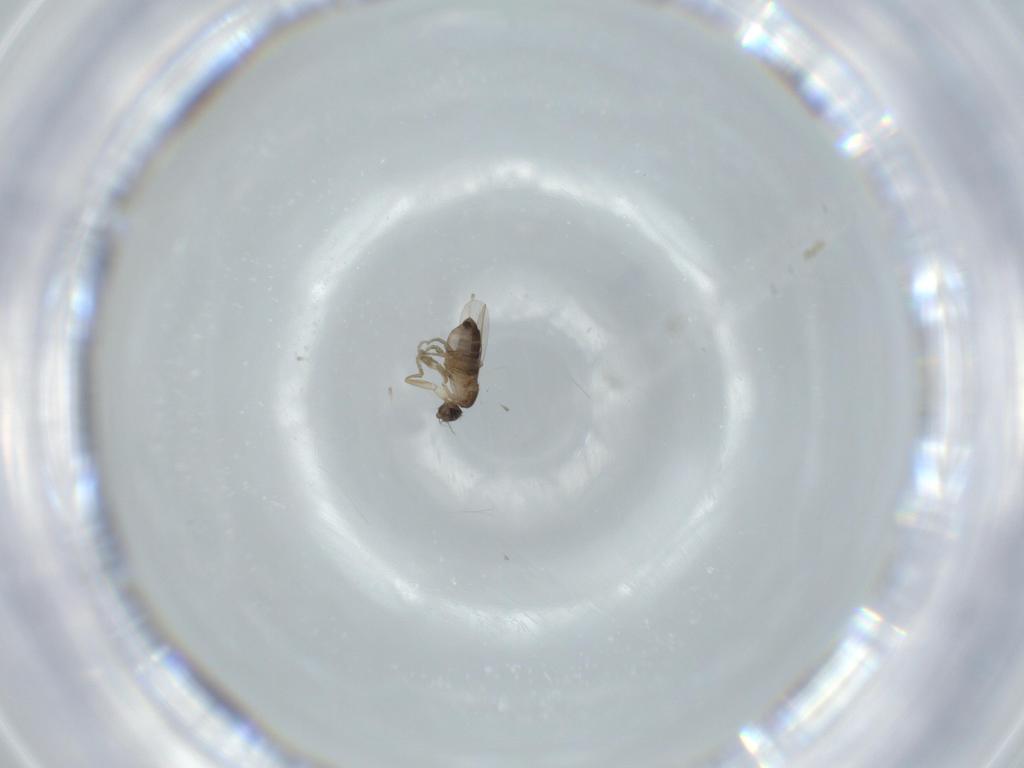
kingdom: Animalia
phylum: Arthropoda
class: Insecta
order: Diptera
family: Phoridae
